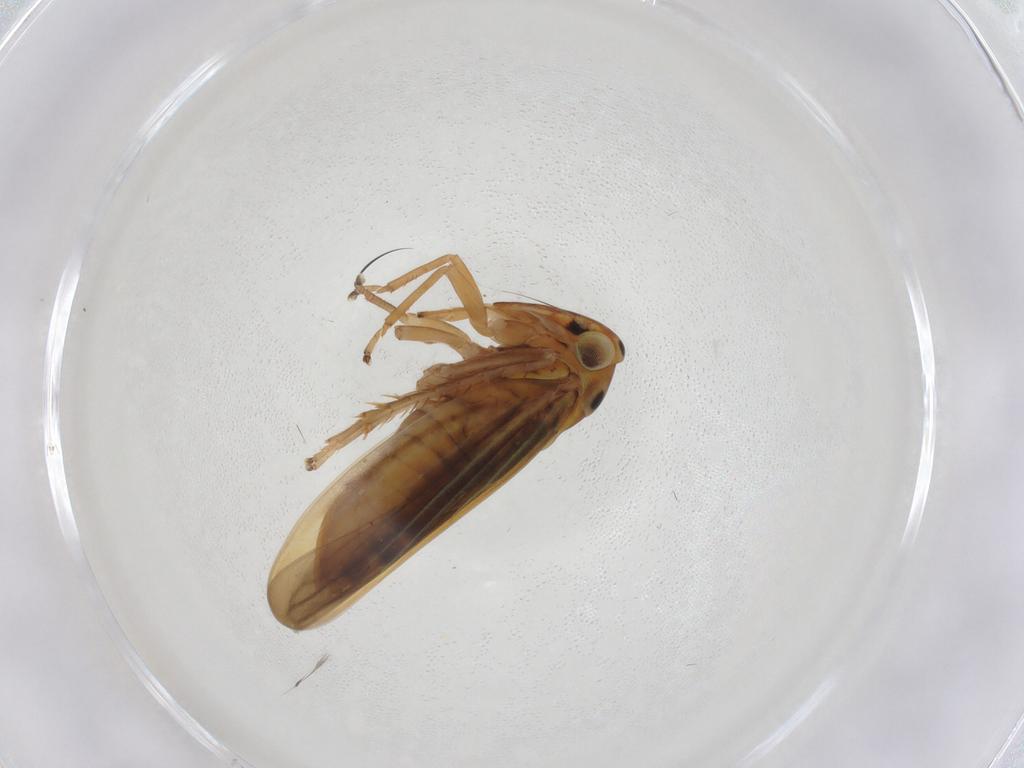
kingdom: Animalia
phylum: Arthropoda
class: Insecta
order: Hemiptera
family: Cicadellidae
